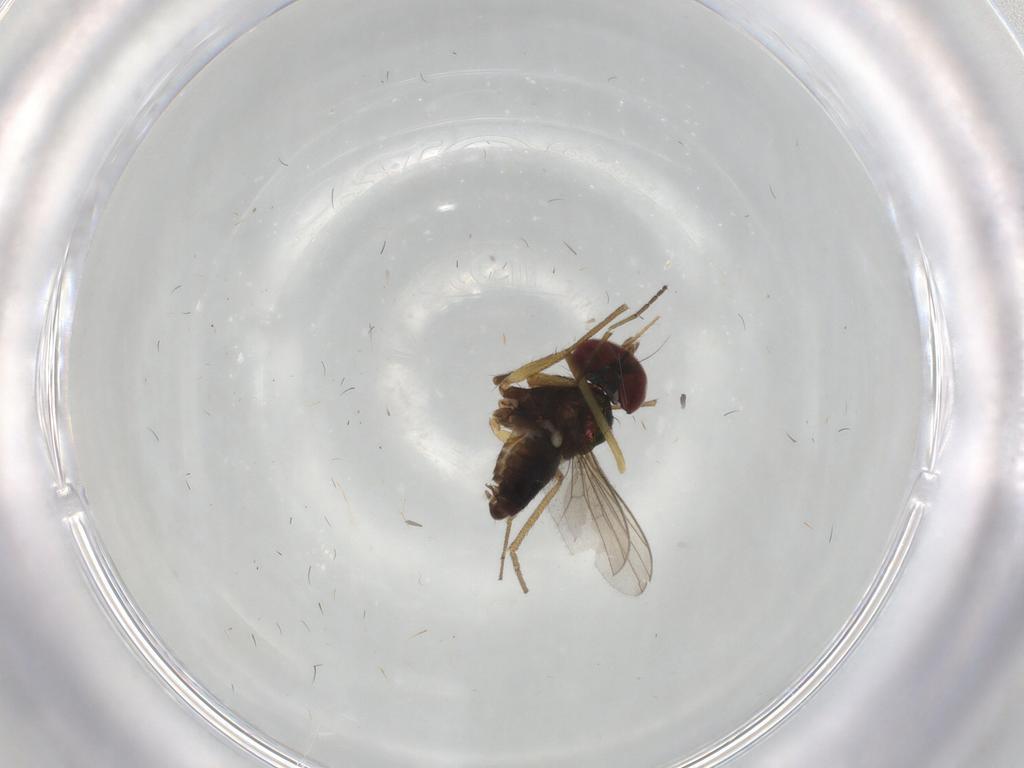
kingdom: Animalia
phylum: Arthropoda
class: Insecta
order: Diptera
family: Dolichopodidae
